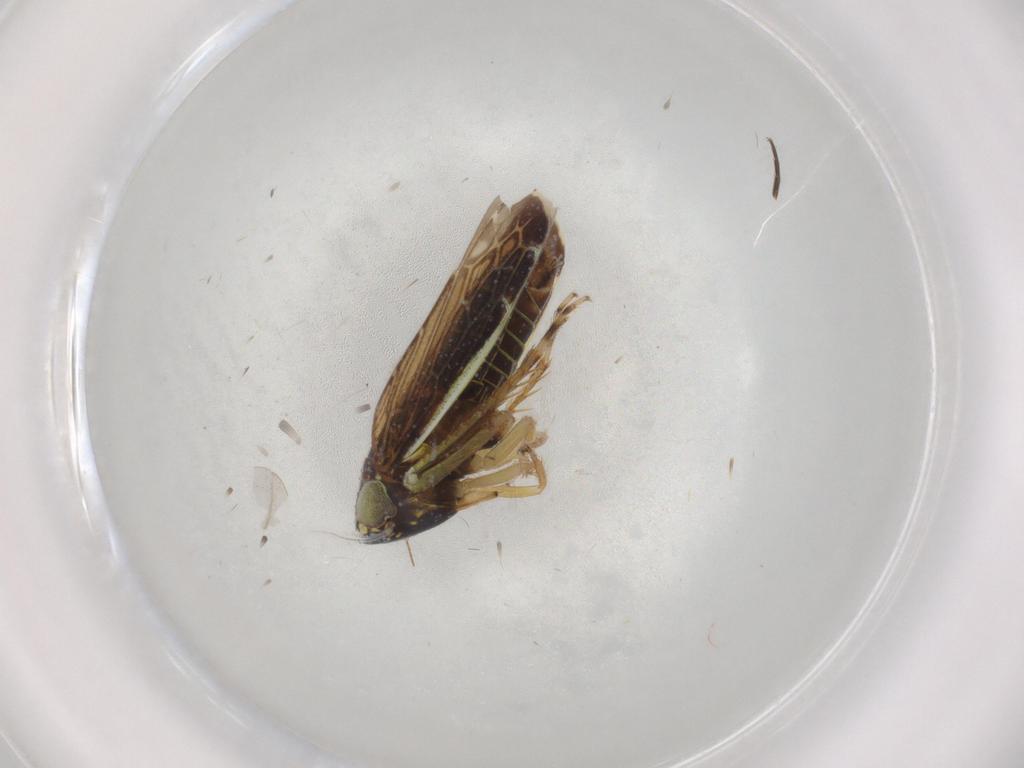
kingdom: Animalia
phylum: Arthropoda
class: Insecta
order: Hemiptera
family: Cicadellidae
